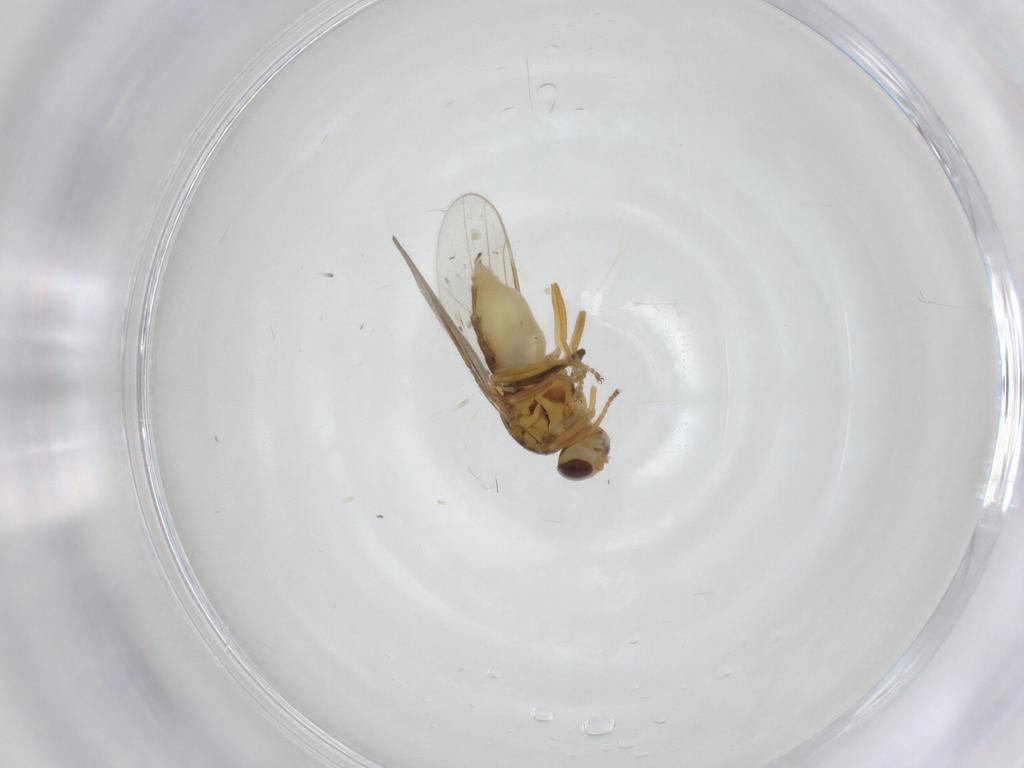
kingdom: Animalia
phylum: Arthropoda
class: Insecta
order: Diptera
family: Chloropidae
